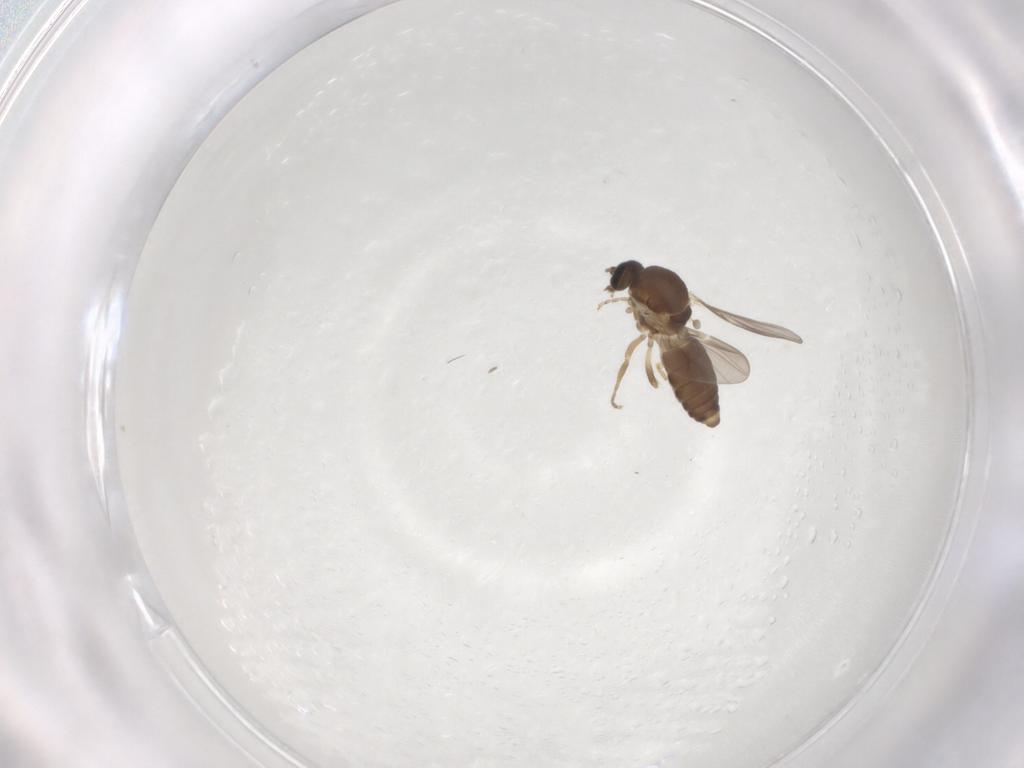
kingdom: Animalia
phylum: Arthropoda
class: Insecta
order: Diptera
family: Ceratopogonidae
